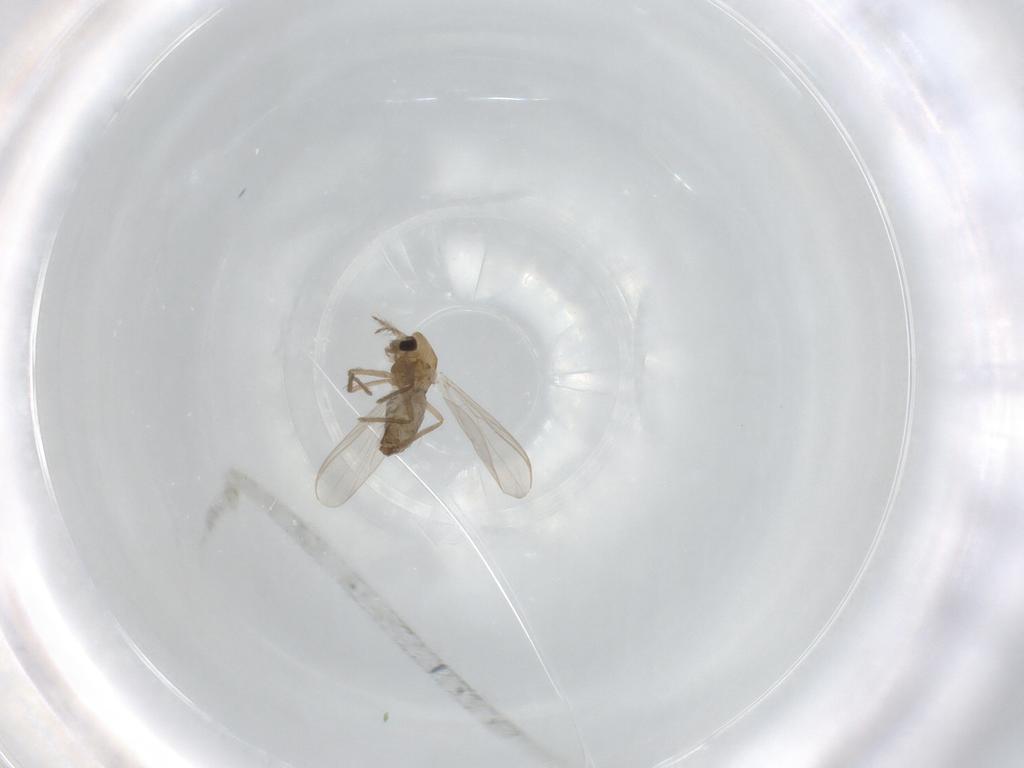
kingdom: Animalia
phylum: Arthropoda
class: Insecta
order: Diptera
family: Chironomidae
